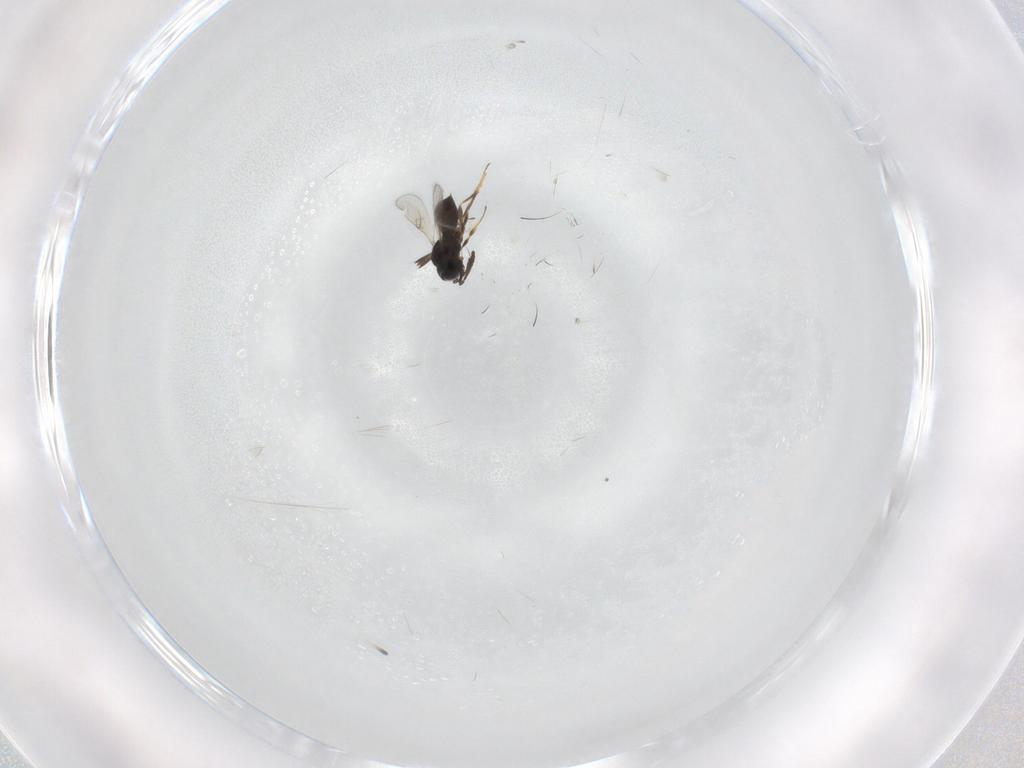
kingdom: Animalia
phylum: Arthropoda
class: Insecta
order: Hymenoptera
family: Scelionidae
